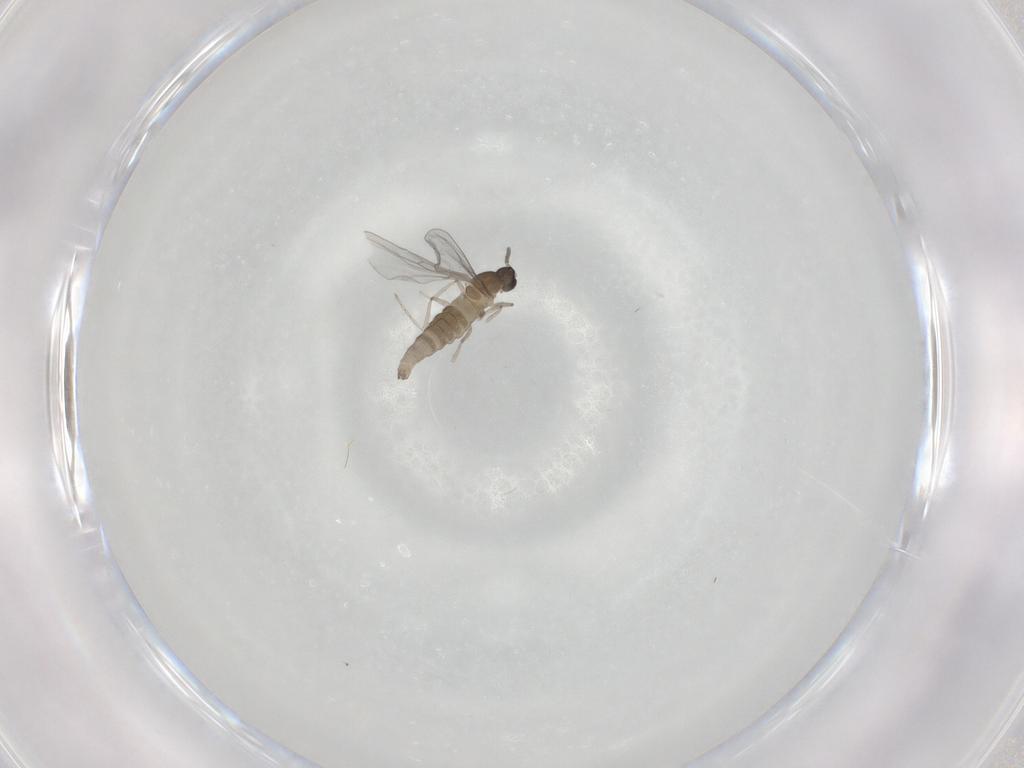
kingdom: Animalia
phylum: Arthropoda
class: Insecta
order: Diptera
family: Cecidomyiidae
